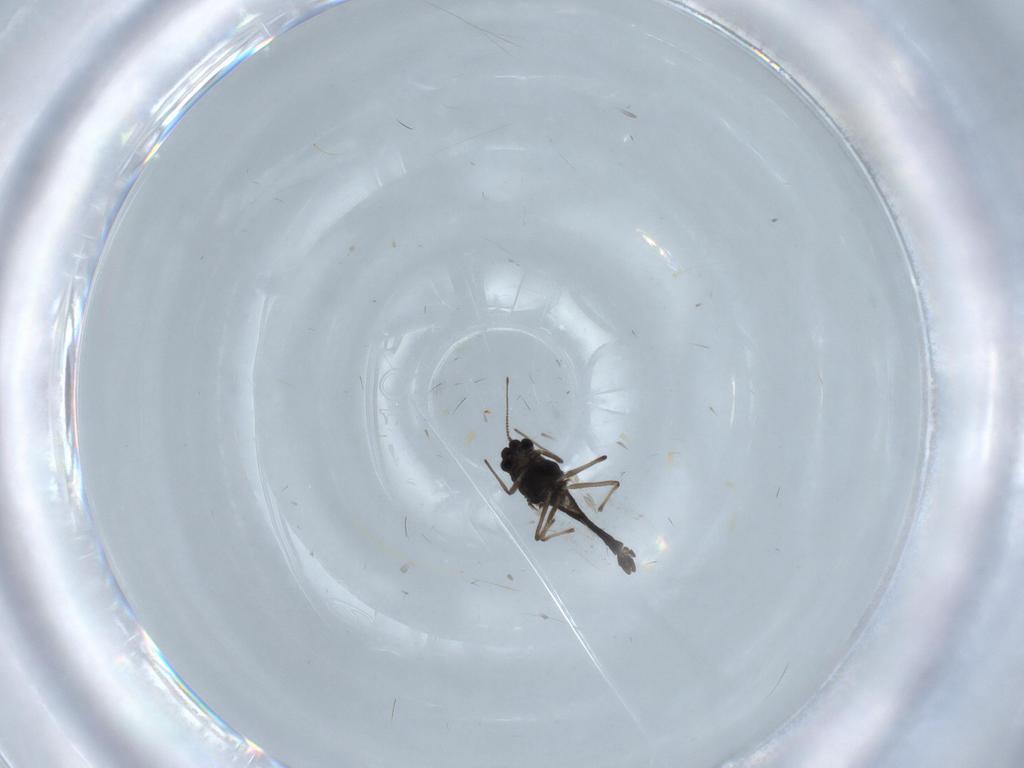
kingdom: Animalia
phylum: Arthropoda
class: Insecta
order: Diptera
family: Chironomidae
